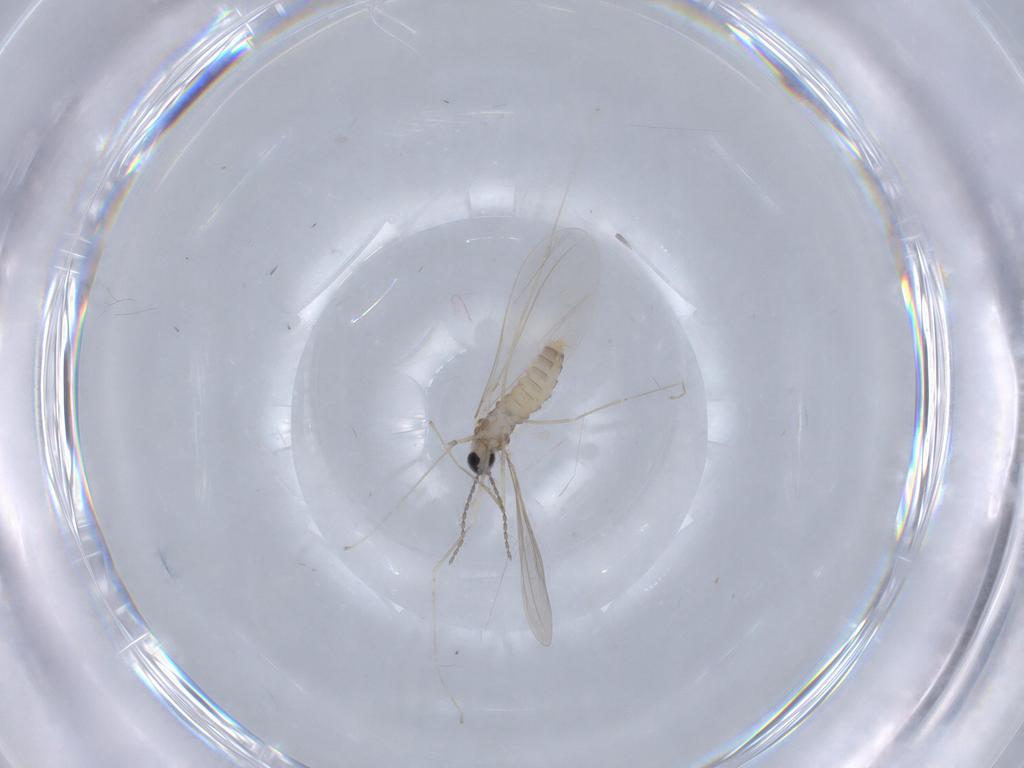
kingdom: Animalia
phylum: Arthropoda
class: Insecta
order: Diptera
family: Cecidomyiidae
